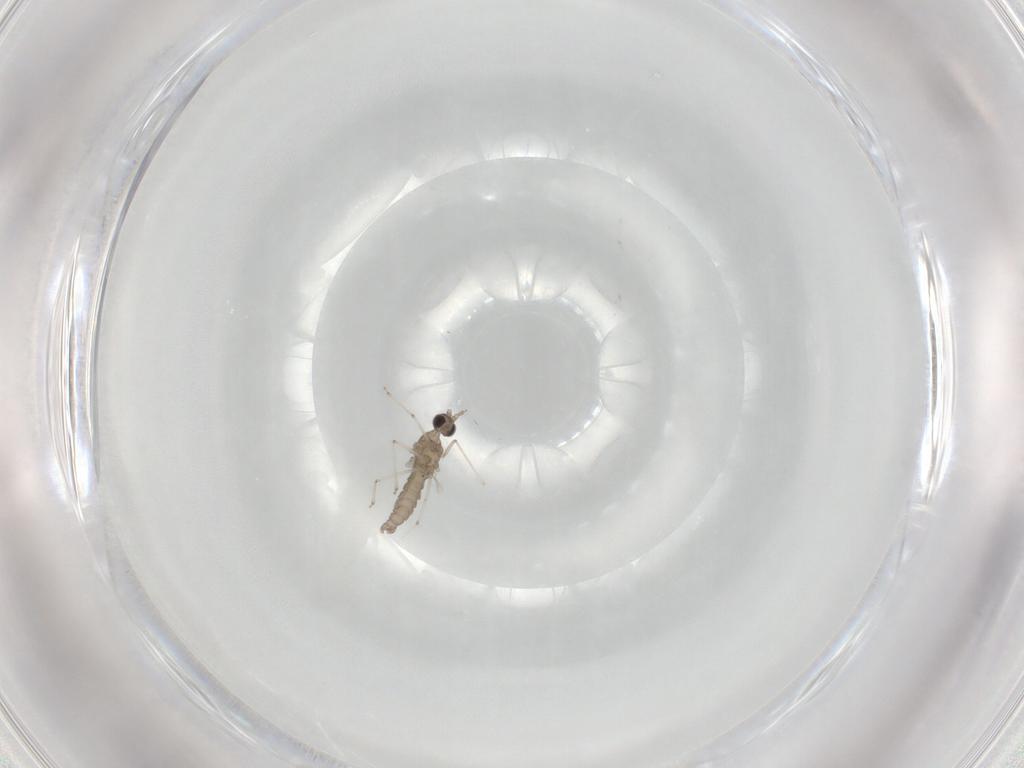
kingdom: Animalia
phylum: Arthropoda
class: Insecta
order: Diptera
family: Cecidomyiidae
